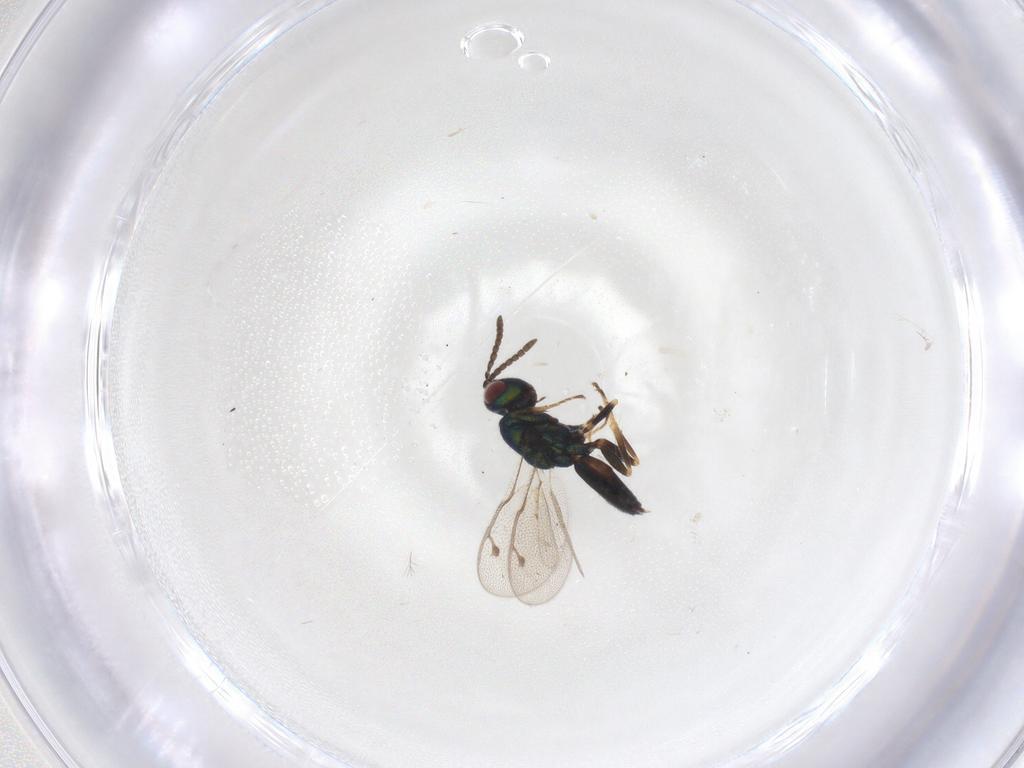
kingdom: Animalia
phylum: Arthropoda
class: Insecta
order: Hymenoptera
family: Pteromalidae
